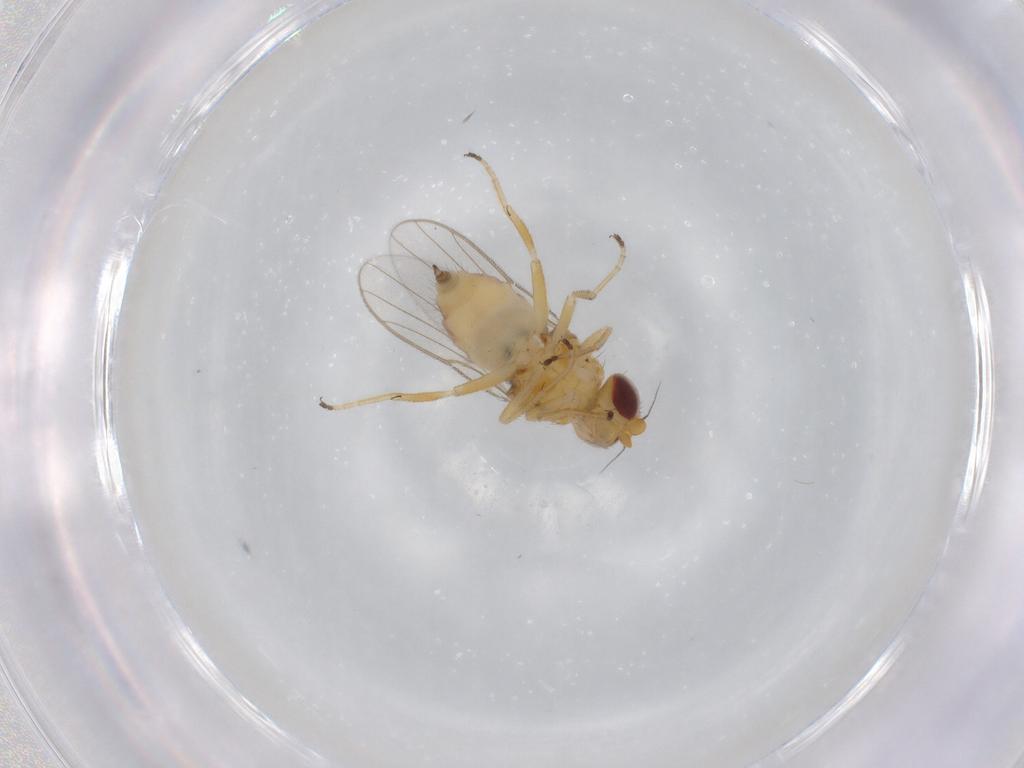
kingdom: Animalia
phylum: Arthropoda
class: Insecta
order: Diptera
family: Chloropidae
